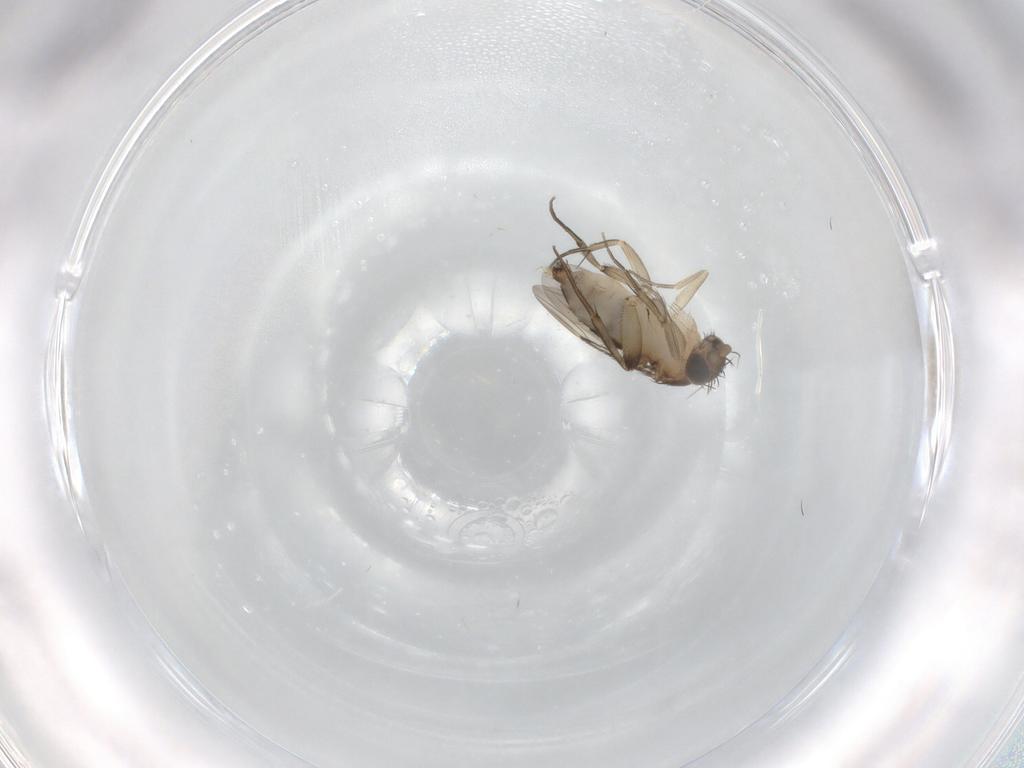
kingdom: Animalia
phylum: Arthropoda
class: Insecta
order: Diptera
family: Phoridae
